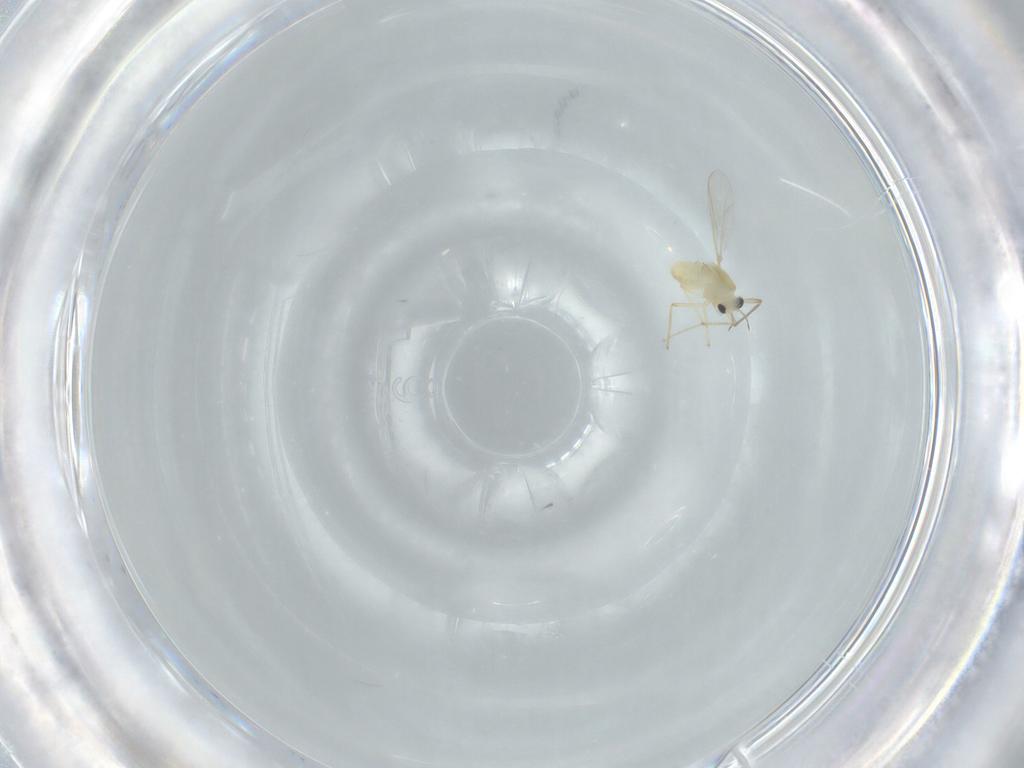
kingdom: Animalia
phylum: Arthropoda
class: Insecta
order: Diptera
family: Chironomidae
